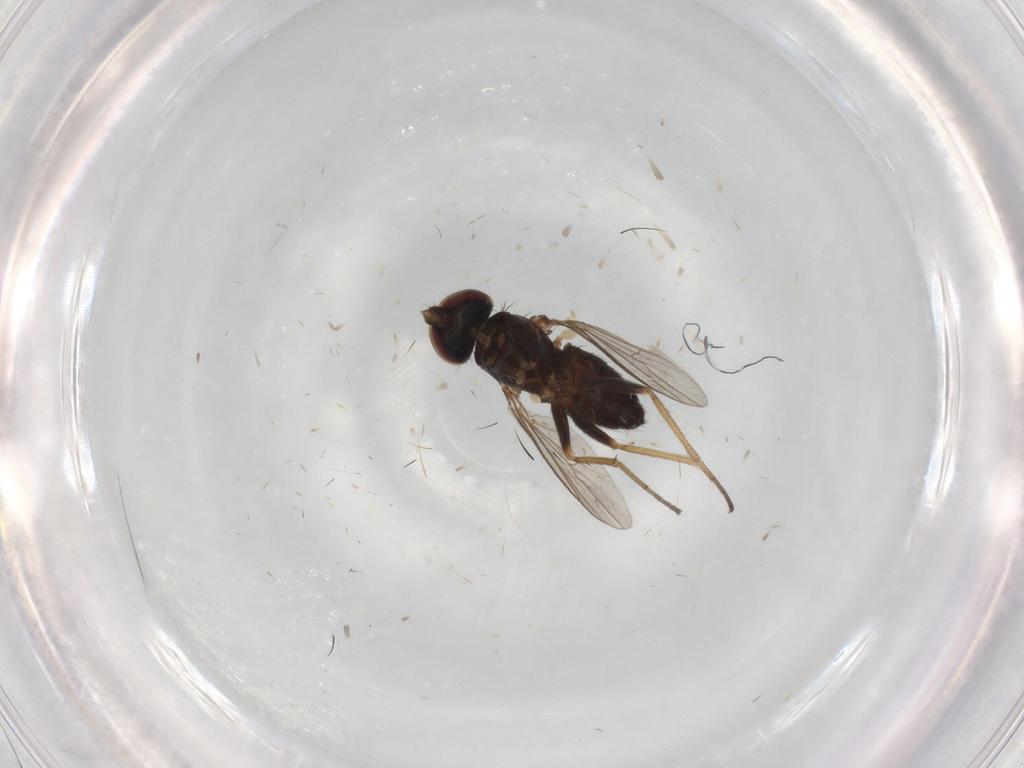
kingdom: Animalia
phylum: Arthropoda
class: Insecta
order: Diptera
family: Dolichopodidae
